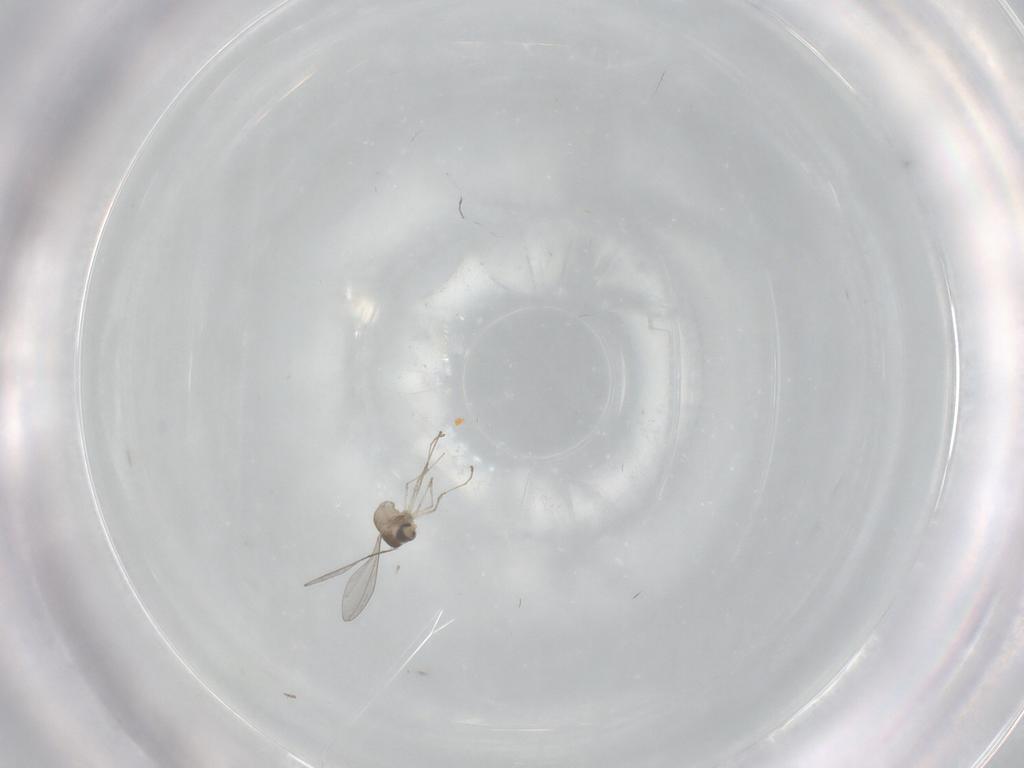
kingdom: Animalia
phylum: Arthropoda
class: Insecta
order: Diptera
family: Cecidomyiidae
